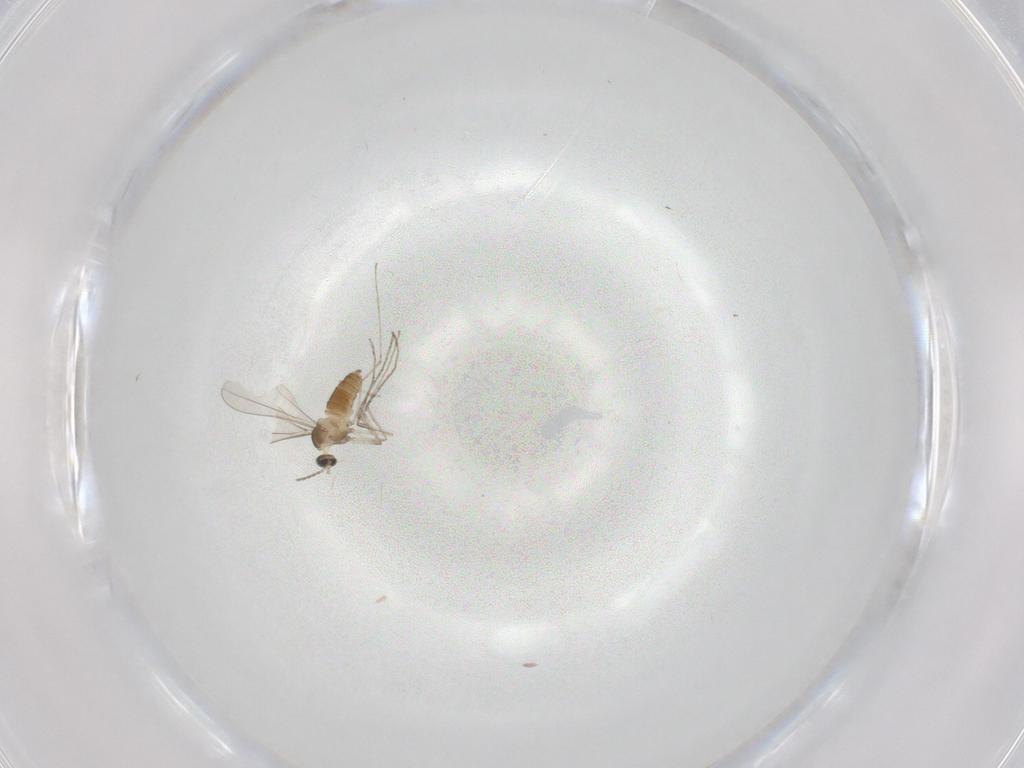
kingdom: Animalia
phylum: Arthropoda
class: Insecta
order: Diptera
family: Cecidomyiidae
